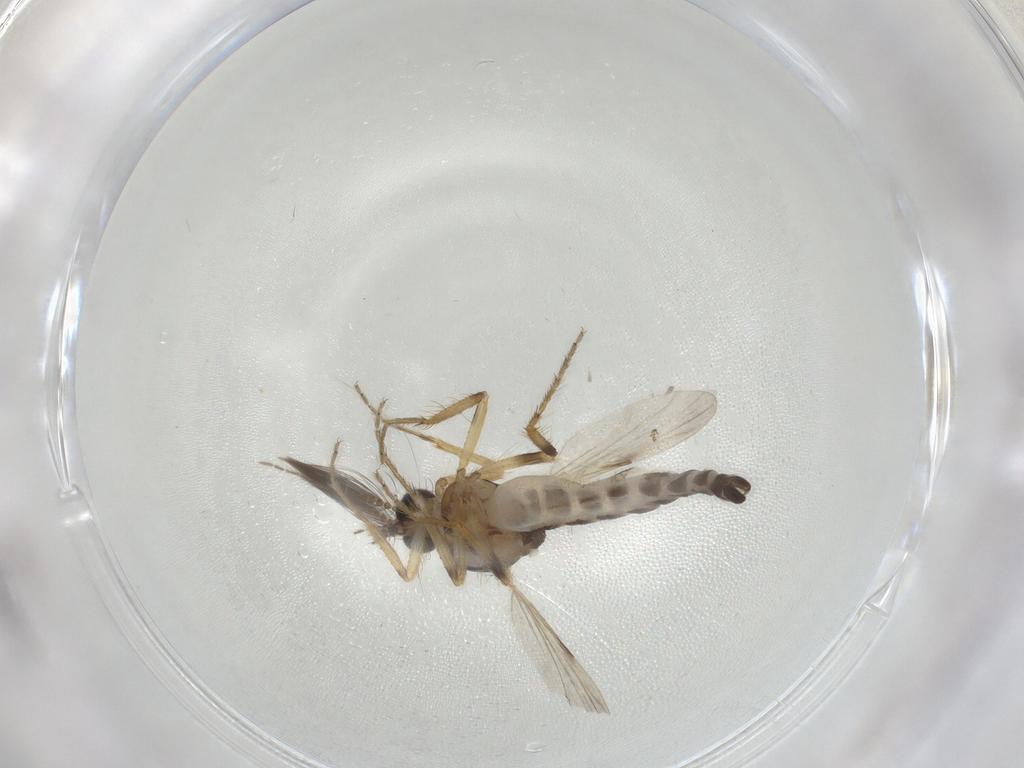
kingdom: Animalia
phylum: Arthropoda
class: Insecta
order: Diptera
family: Ceratopogonidae
